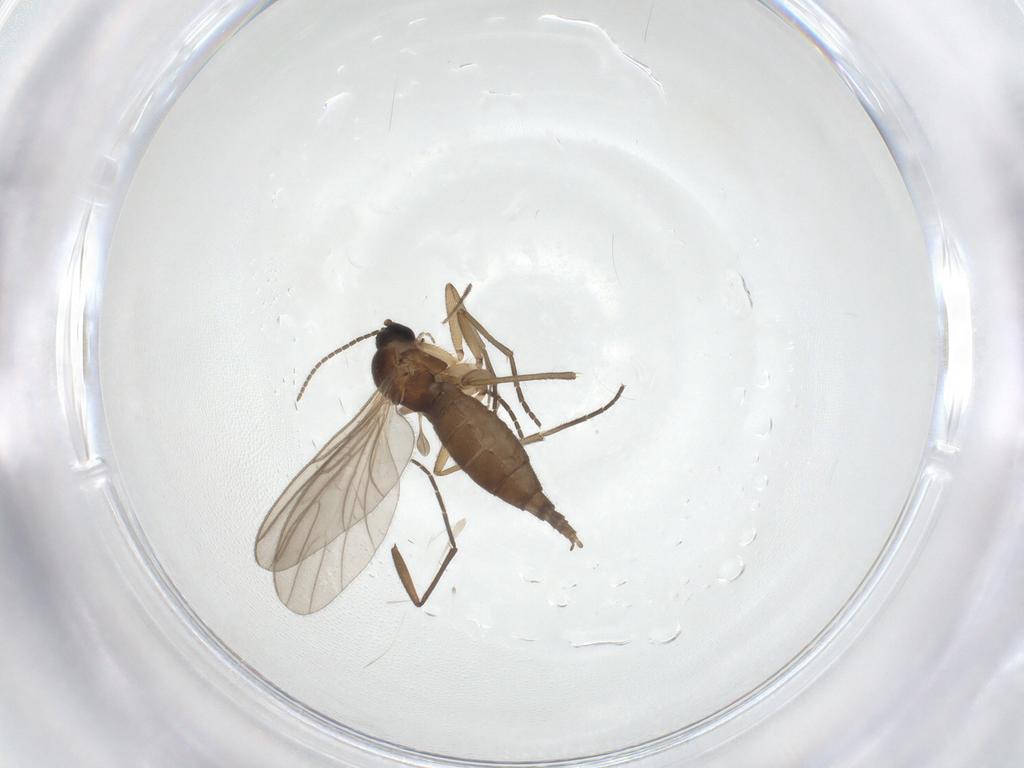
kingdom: Animalia
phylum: Arthropoda
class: Insecta
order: Diptera
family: Sciaridae
